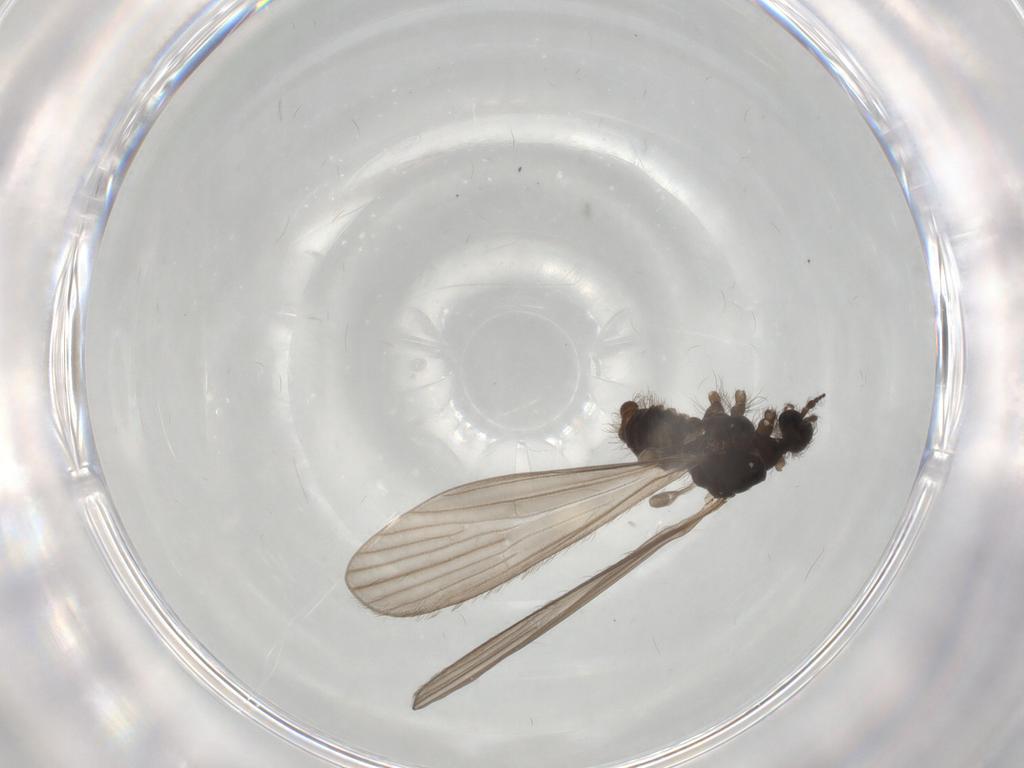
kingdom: Animalia
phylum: Arthropoda
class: Insecta
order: Diptera
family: Limoniidae
